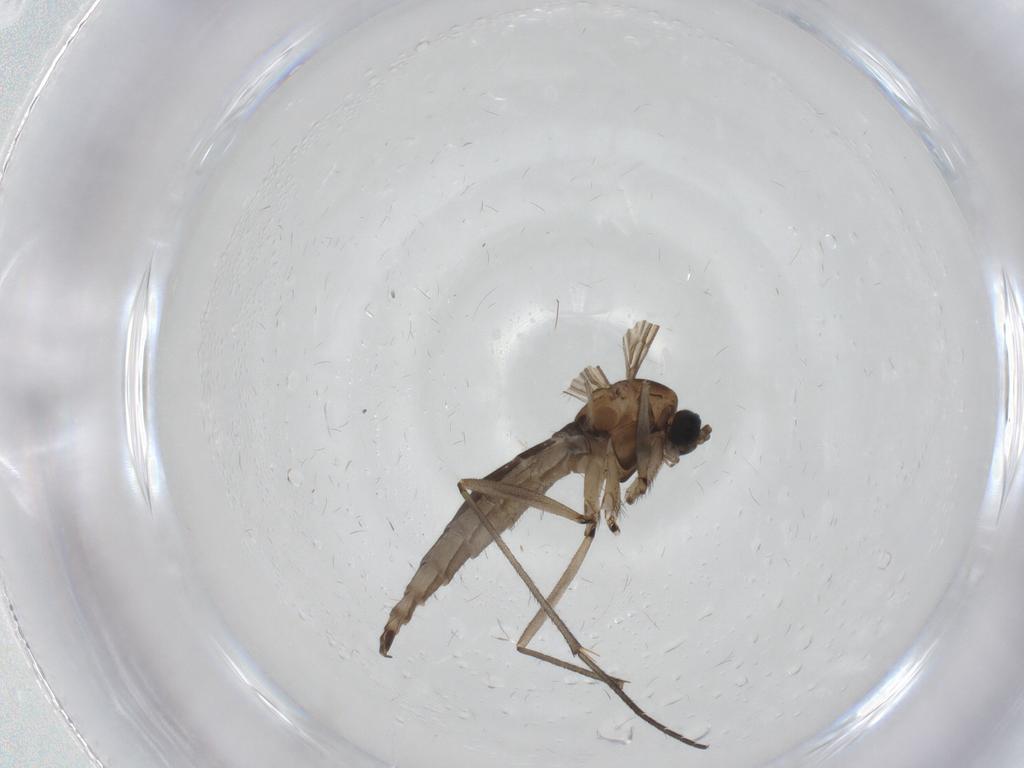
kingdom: Animalia
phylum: Arthropoda
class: Insecta
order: Diptera
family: Sciaridae
